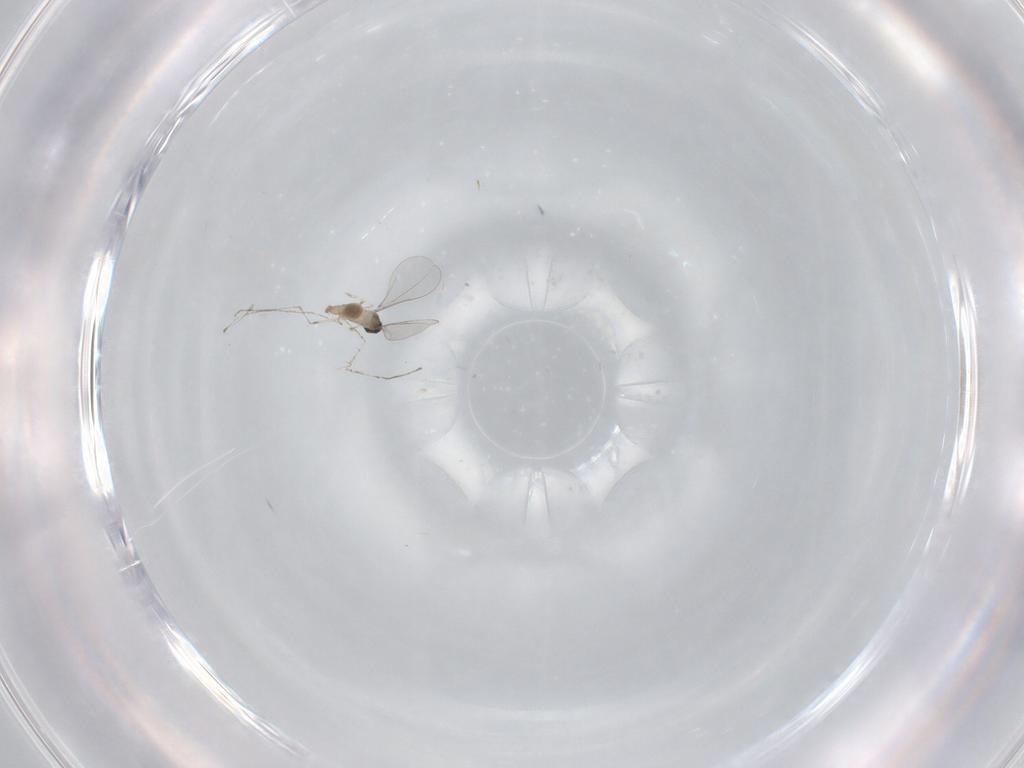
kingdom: Animalia
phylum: Arthropoda
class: Insecta
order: Diptera
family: Cecidomyiidae
